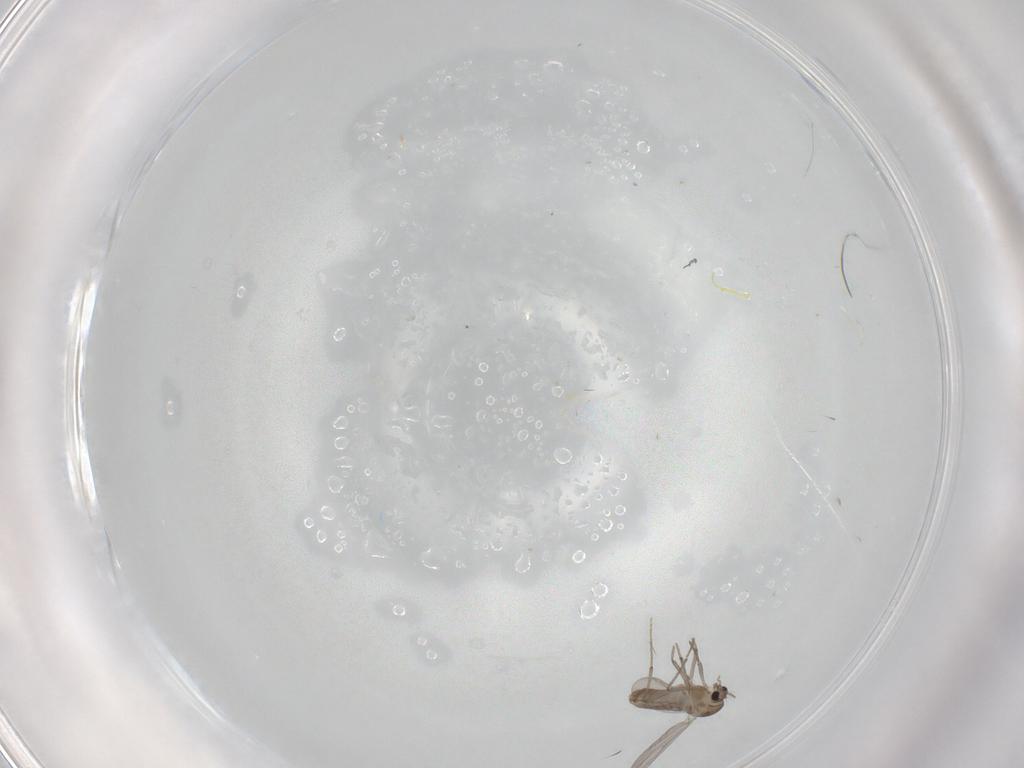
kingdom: Animalia
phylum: Arthropoda
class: Insecta
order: Diptera
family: Chironomidae
